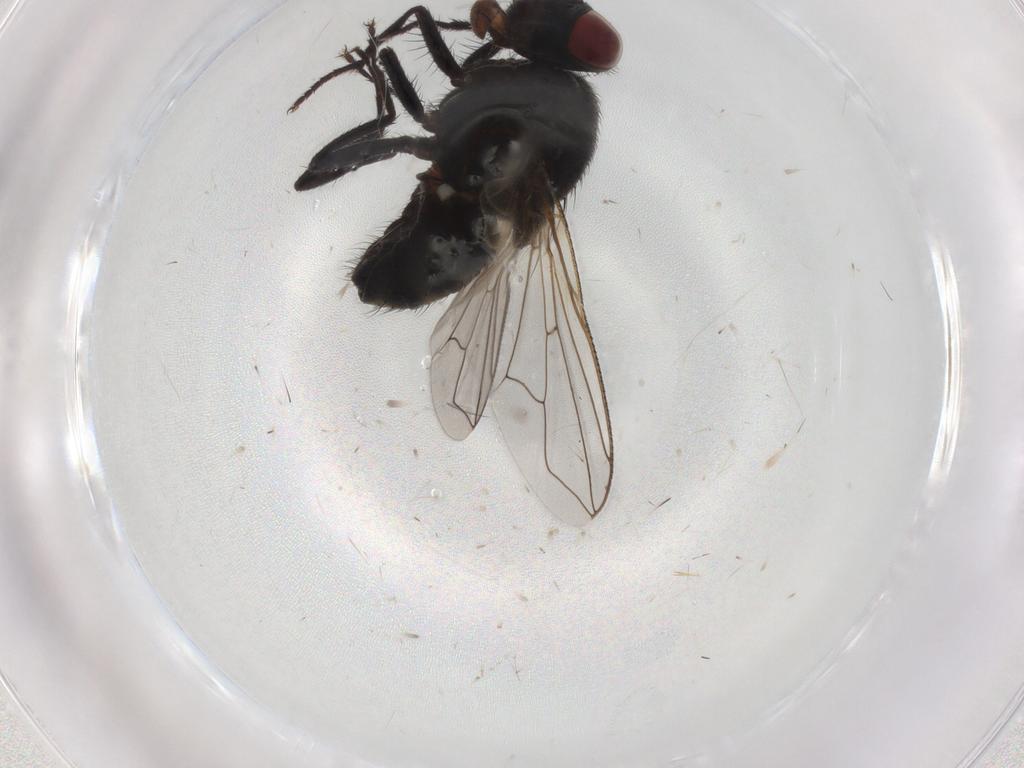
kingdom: Animalia
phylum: Arthropoda
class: Insecta
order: Diptera
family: Muscidae
